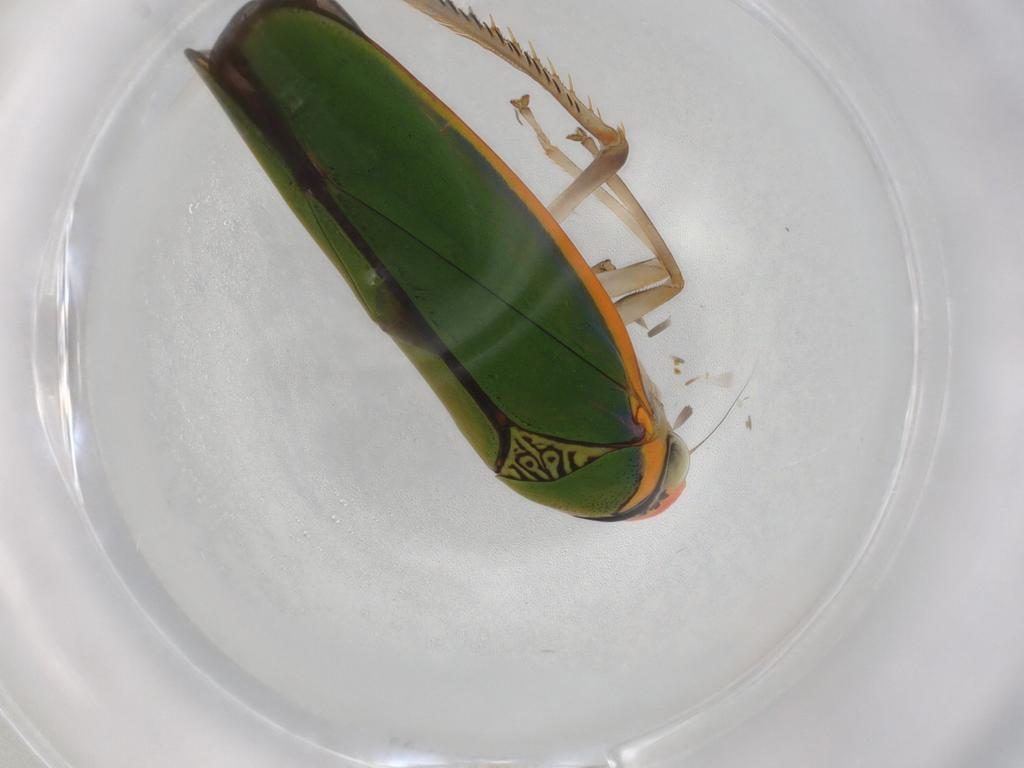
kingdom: Animalia
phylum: Arthropoda
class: Insecta
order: Hemiptera
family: Cicadellidae
